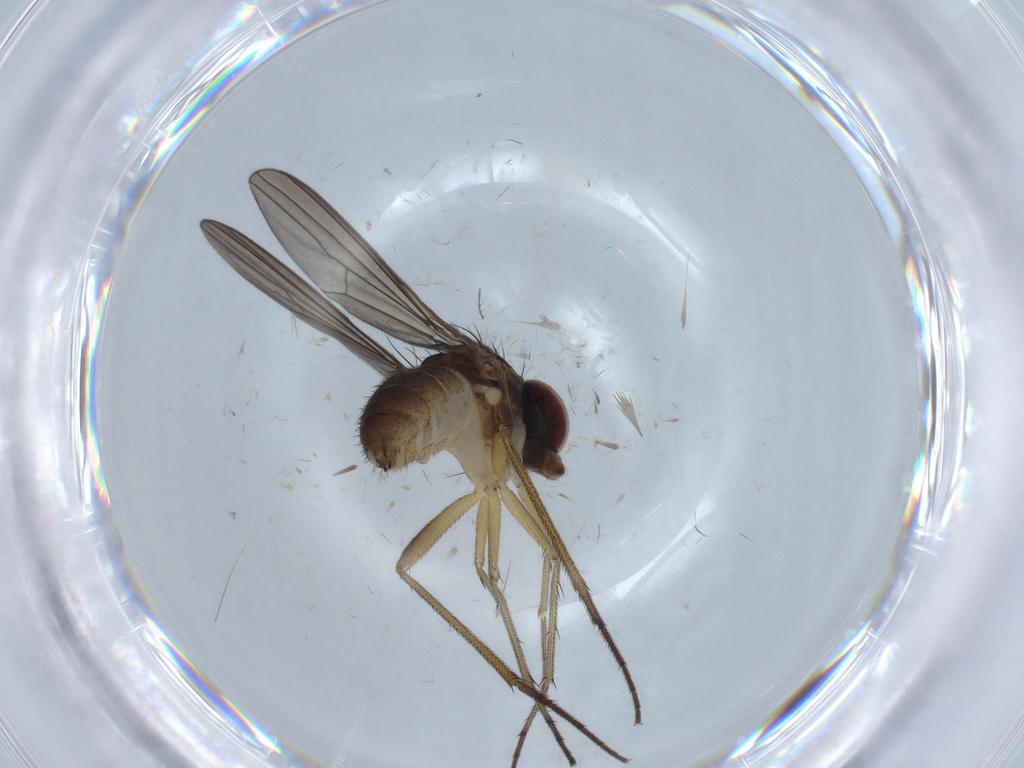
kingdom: Animalia
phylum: Arthropoda
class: Insecta
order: Diptera
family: Dolichopodidae
